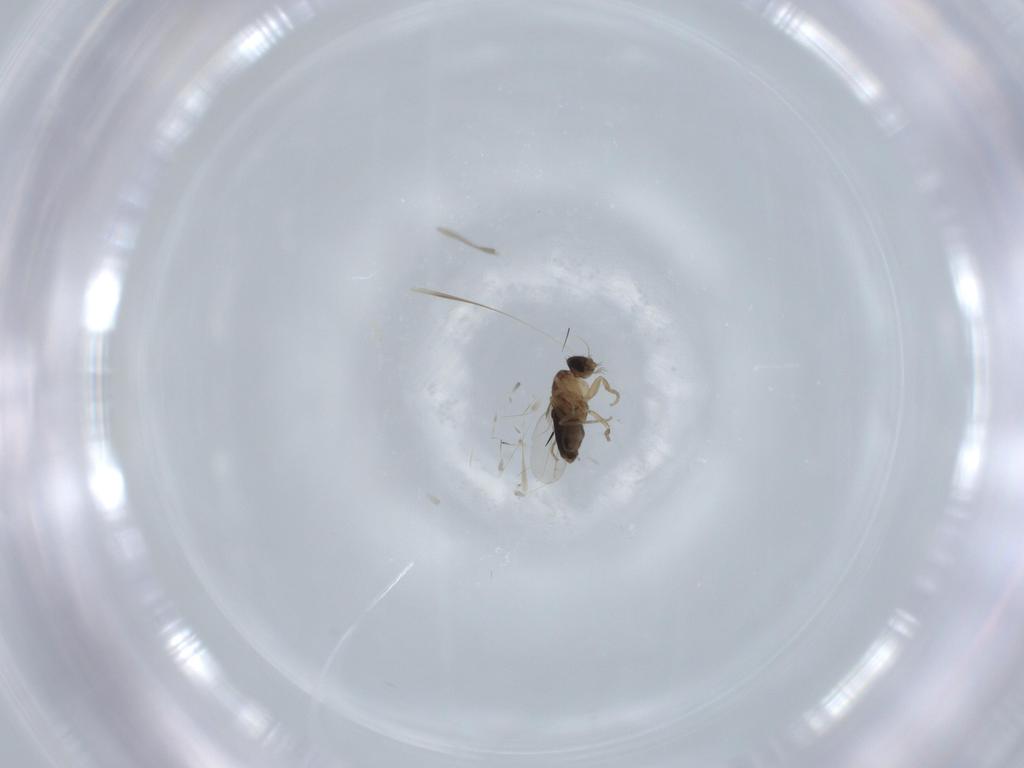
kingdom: Animalia
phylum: Arthropoda
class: Insecta
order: Diptera
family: Phoridae
